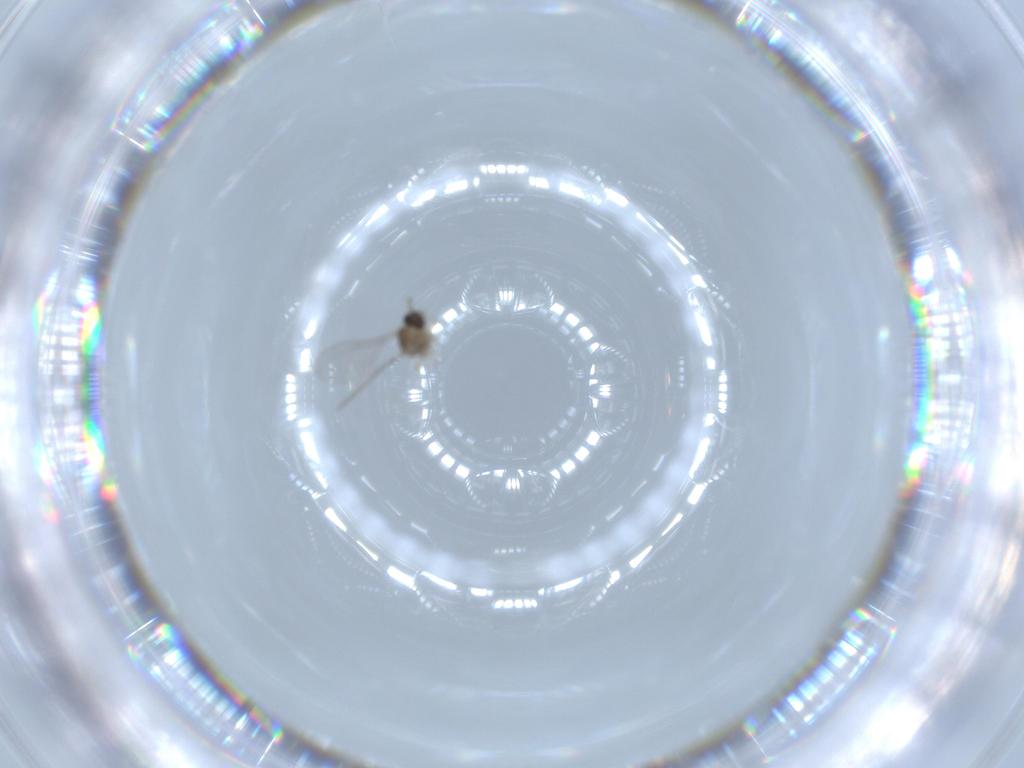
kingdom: Animalia
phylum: Arthropoda
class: Insecta
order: Diptera
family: Cecidomyiidae
